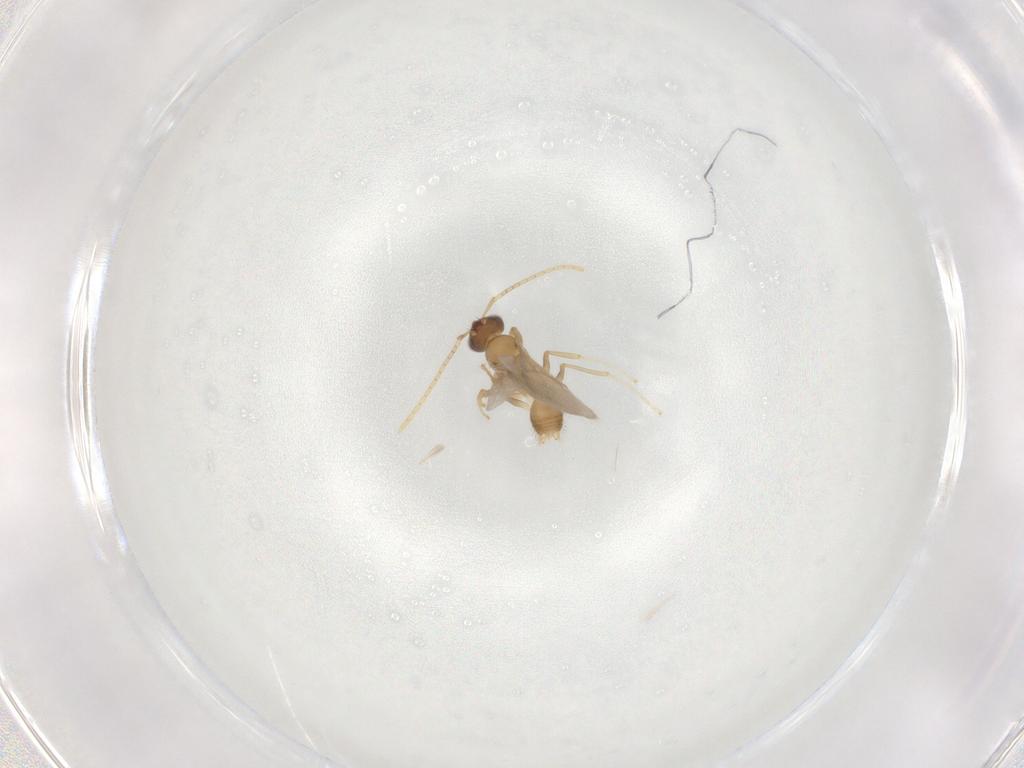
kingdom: Animalia
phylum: Arthropoda
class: Insecta
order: Hymenoptera
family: Formicidae
